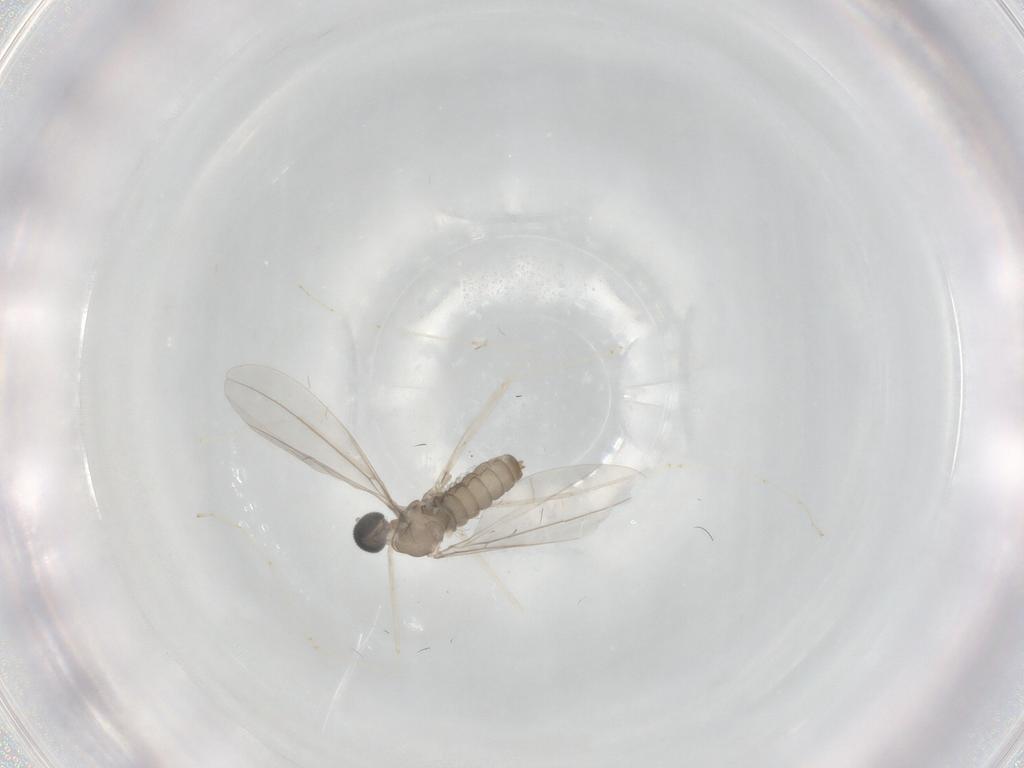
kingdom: Animalia
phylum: Arthropoda
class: Insecta
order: Diptera
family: Cecidomyiidae
